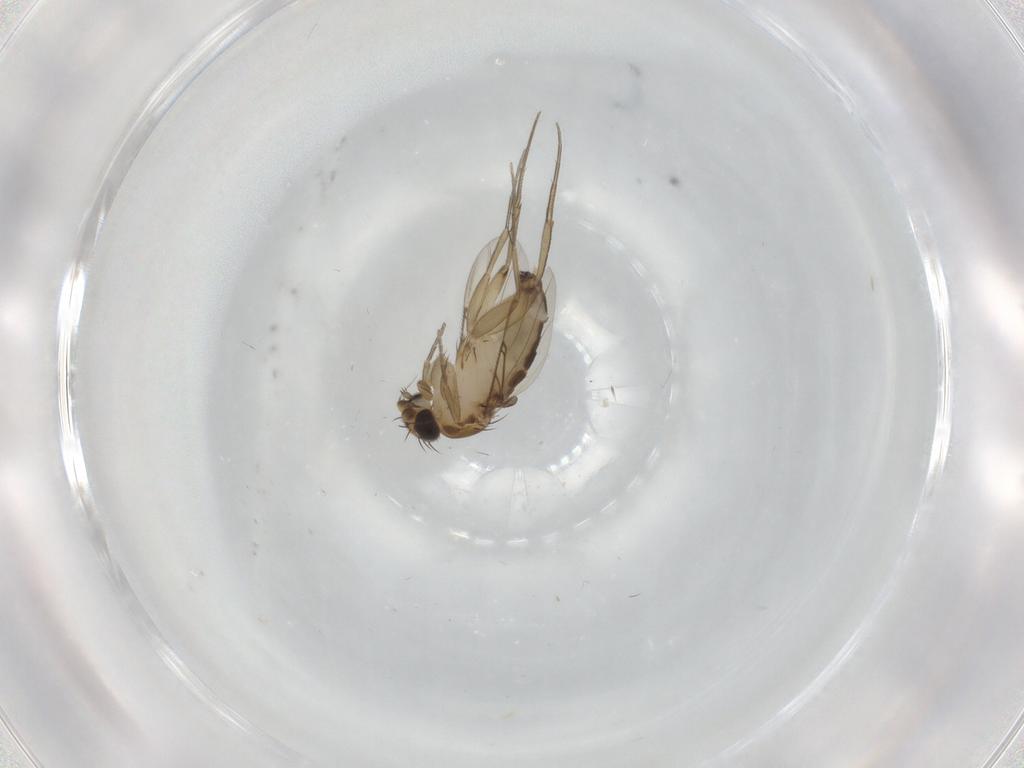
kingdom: Animalia
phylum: Arthropoda
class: Insecta
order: Diptera
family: Phoridae
